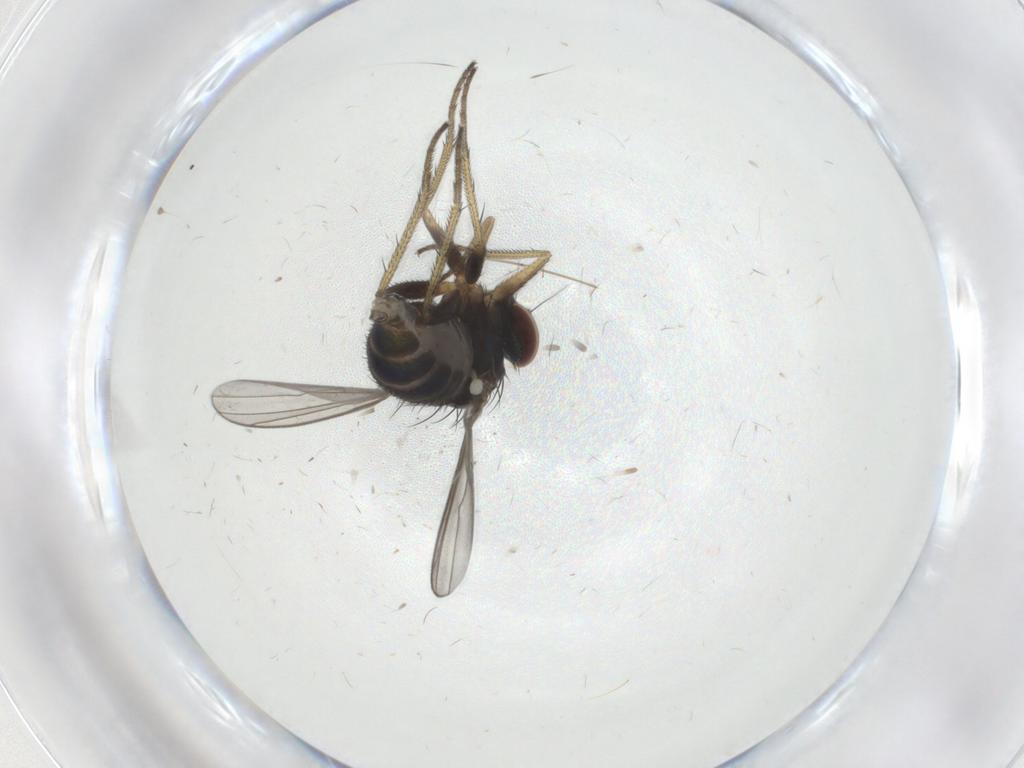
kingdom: Animalia
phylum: Arthropoda
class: Insecta
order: Diptera
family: Dolichopodidae
